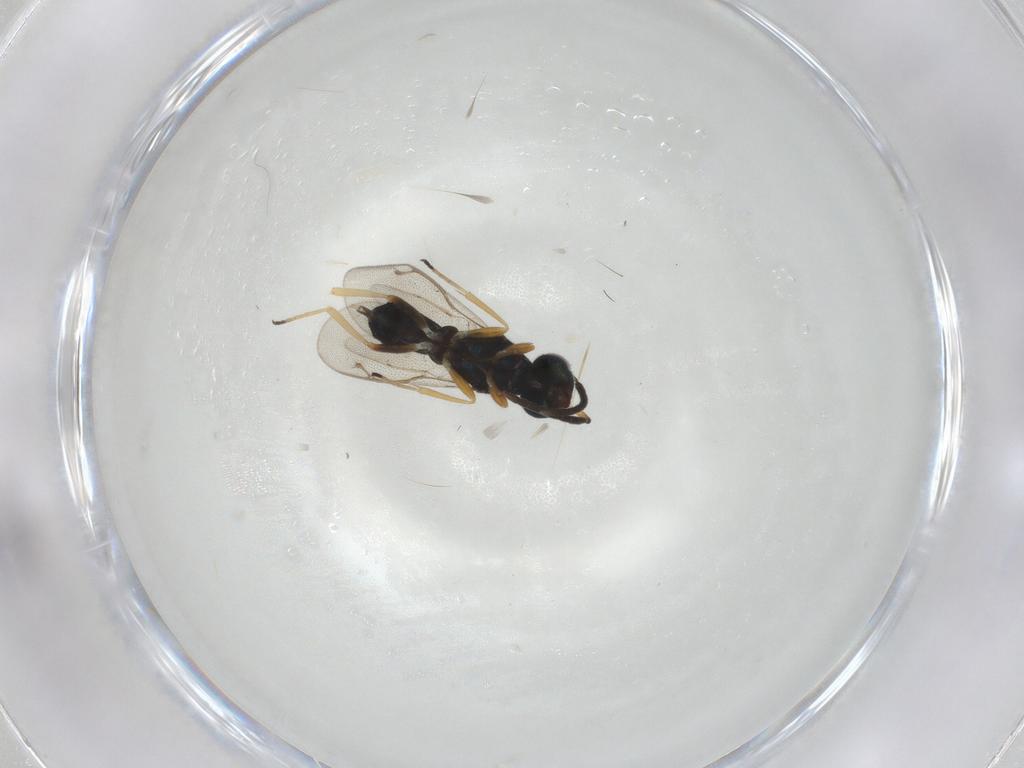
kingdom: Animalia
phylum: Arthropoda
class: Insecta
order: Hymenoptera
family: Eupelmidae
